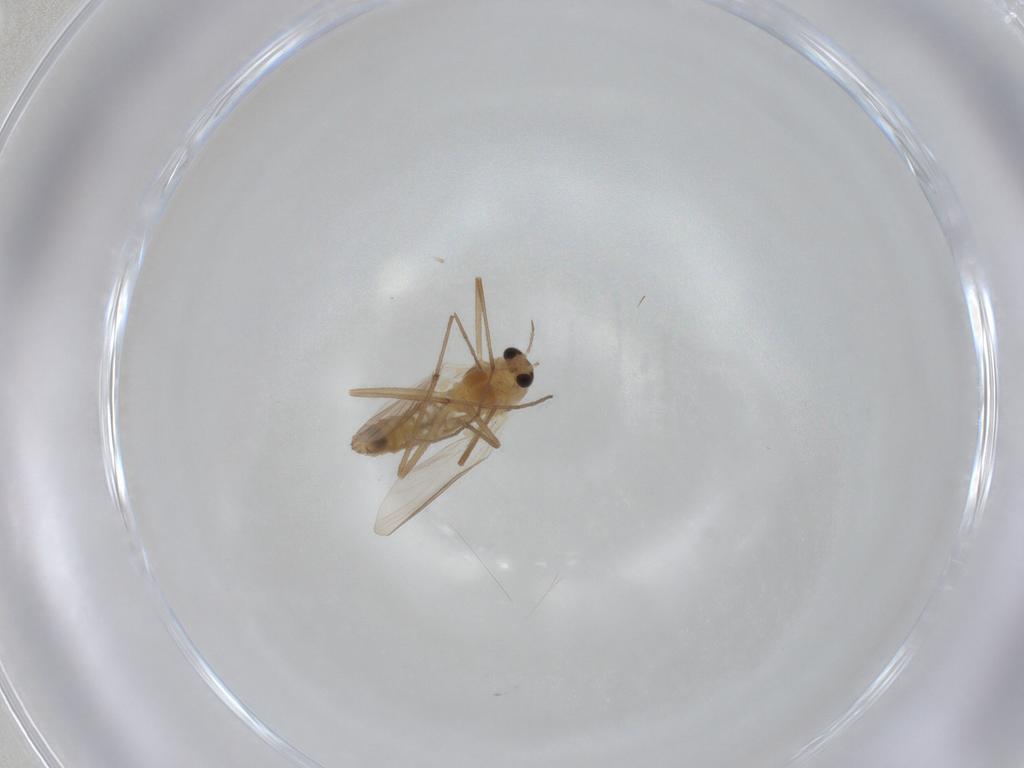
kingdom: Animalia
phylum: Arthropoda
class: Insecta
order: Diptera
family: Chironomidae
